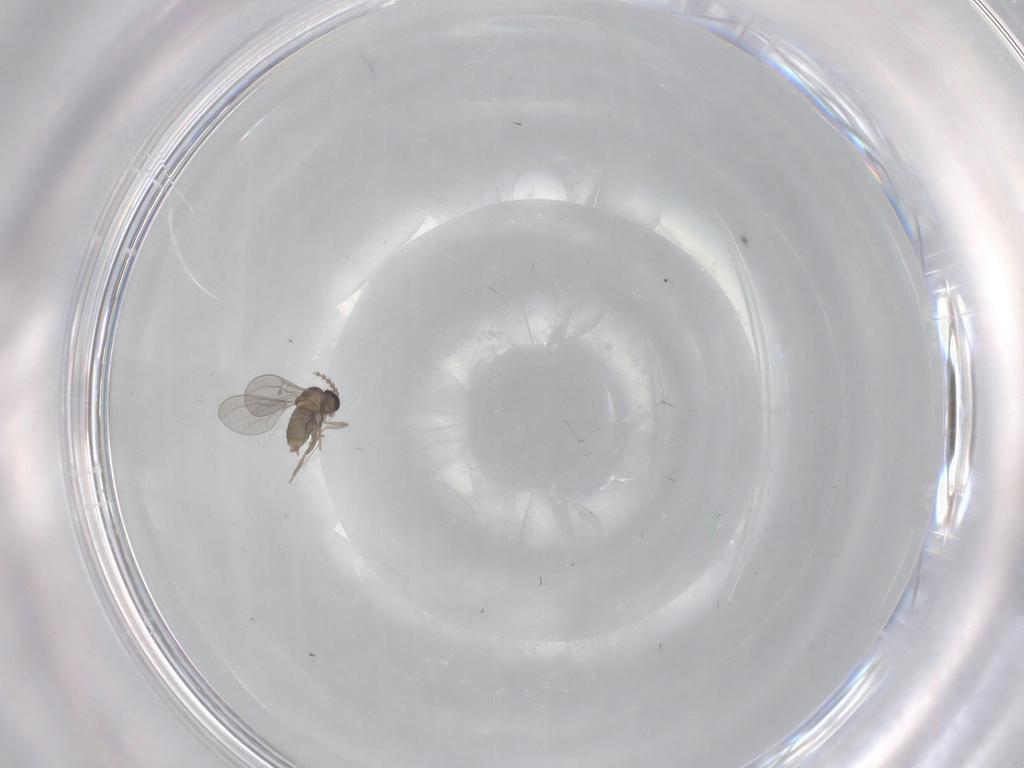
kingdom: Animalia
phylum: Arthropoda
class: Insecta
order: Diptera
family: Cecidomyiidae
